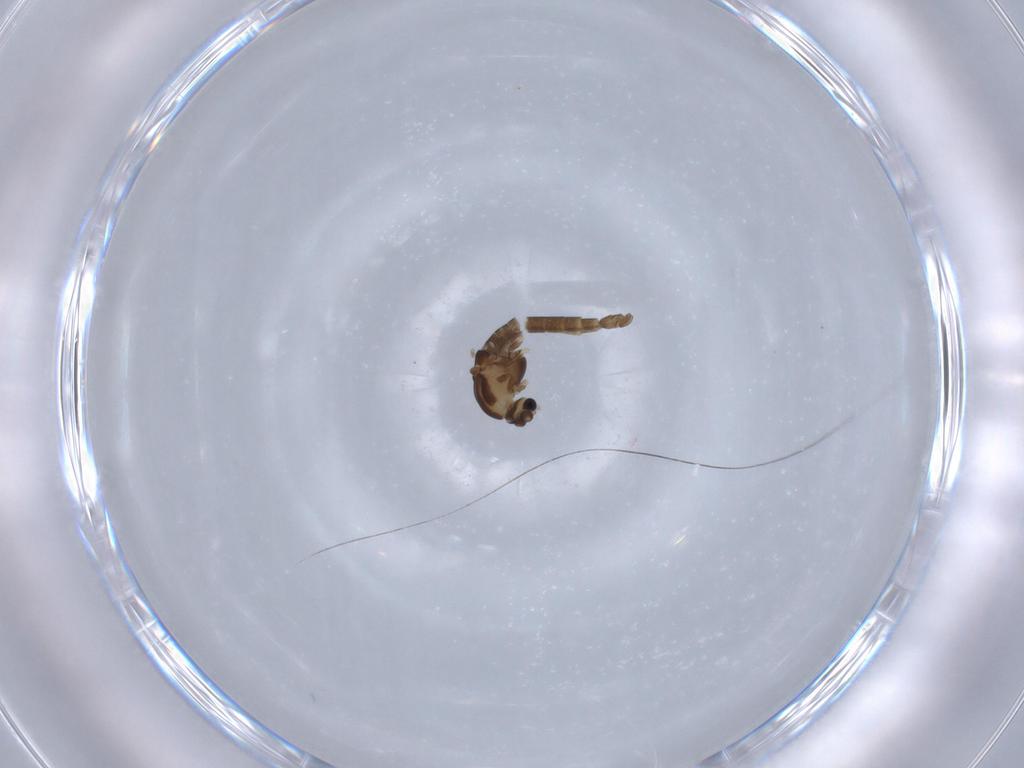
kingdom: Animalia
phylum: Arthropoda
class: Insecta
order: Diptera
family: Chironomidae
